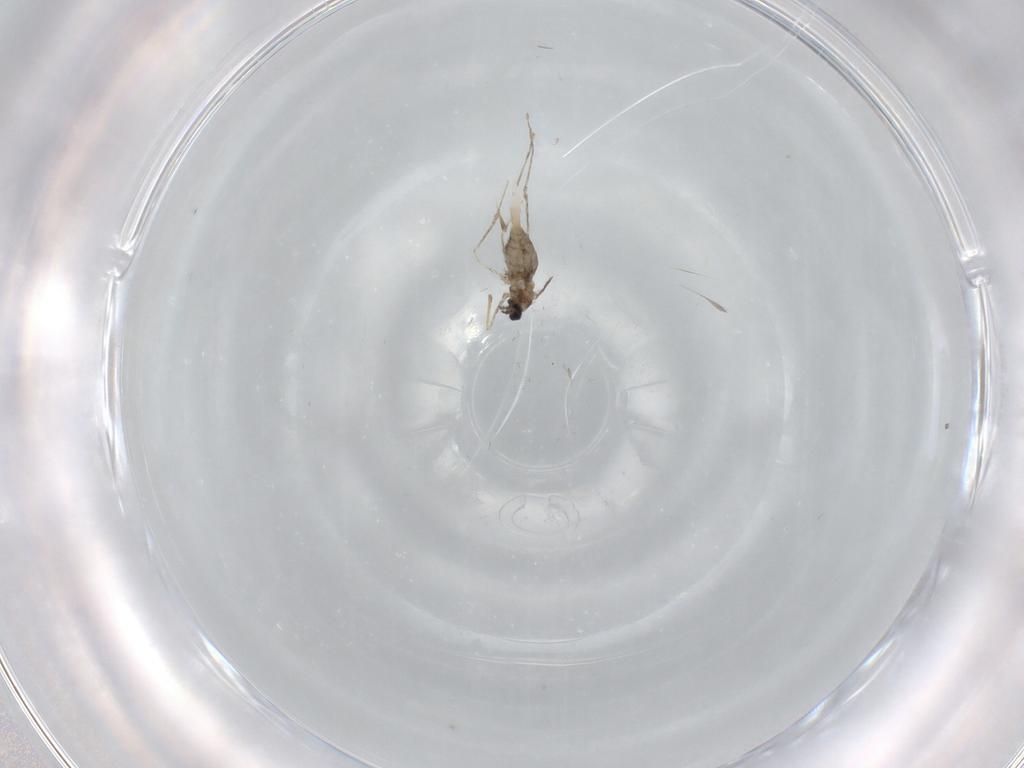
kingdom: Animalia
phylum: Arthropoda
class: Insecta
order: Diptera
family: Cecidomyiidae
